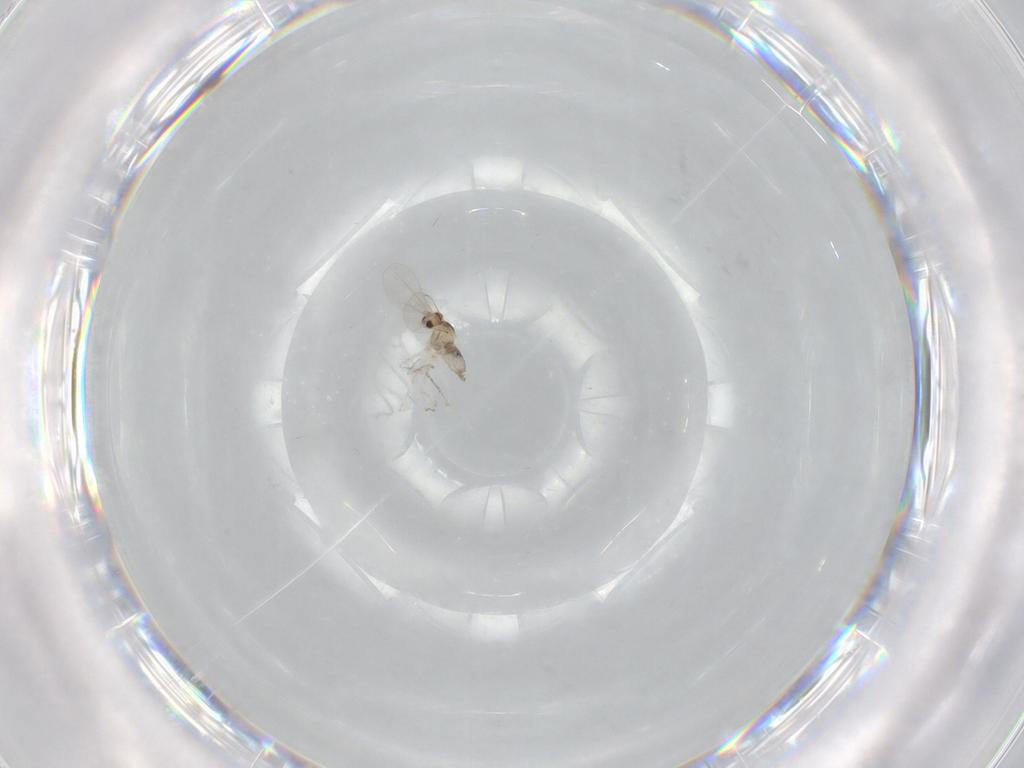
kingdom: Animalia
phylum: Arthropoda
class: Insecta
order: Diptera
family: Cecidomyiidae
